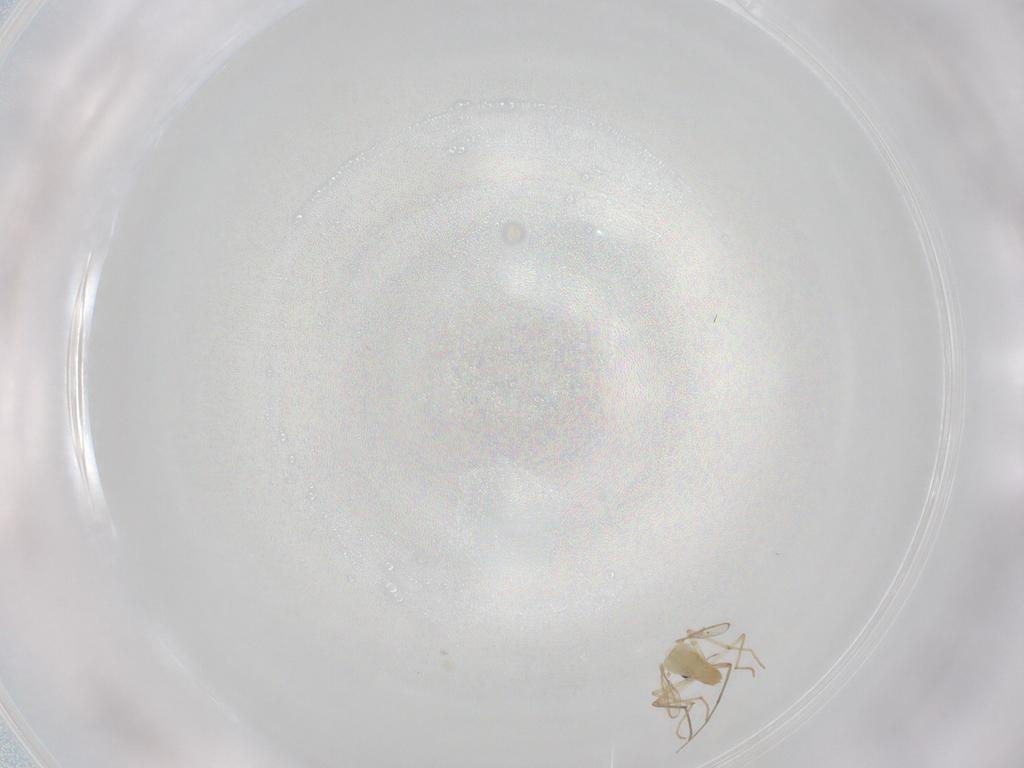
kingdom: Animalia
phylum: Arthropoda
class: Insecta
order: Diptera
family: Chironomidae
